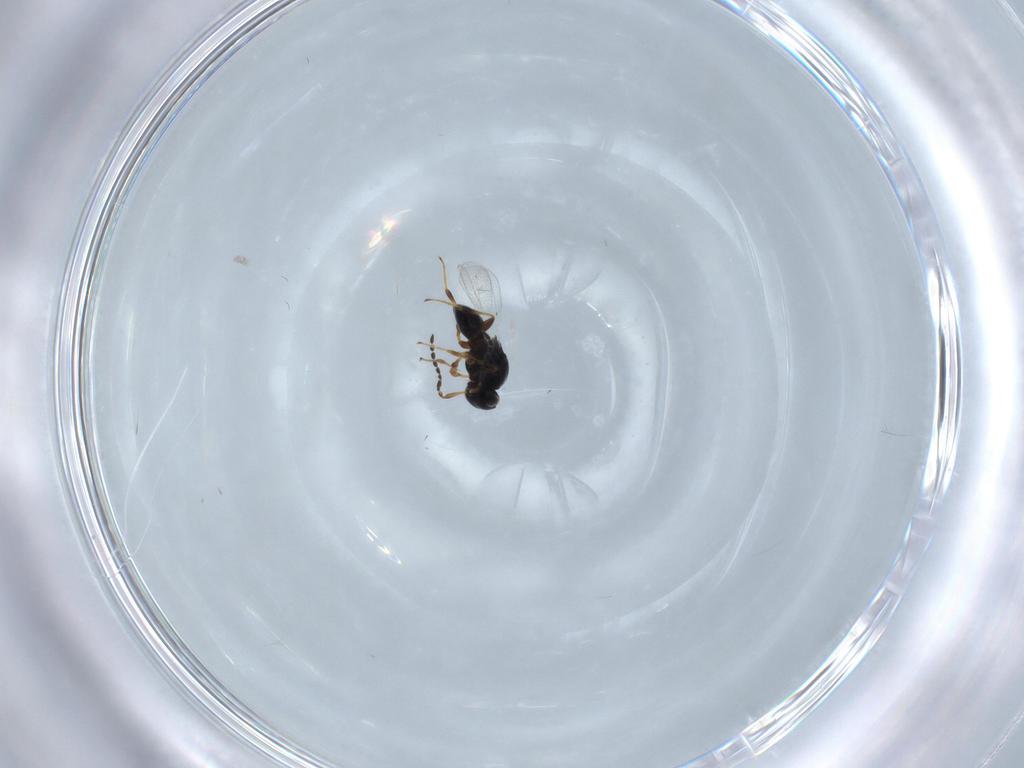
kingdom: Animalia
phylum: Arthropoda
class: Insecta
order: Hymenoptera
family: Platygastridae
